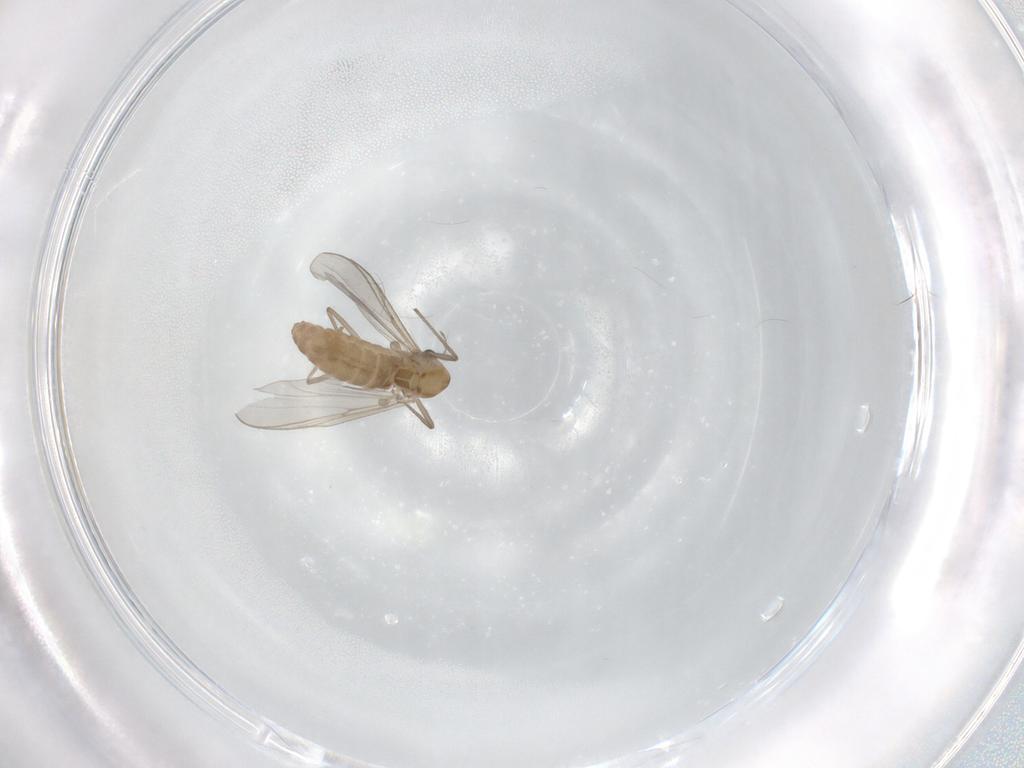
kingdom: Animalia
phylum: Arthropoda
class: Insecta
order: Diptera
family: Chironomidae
